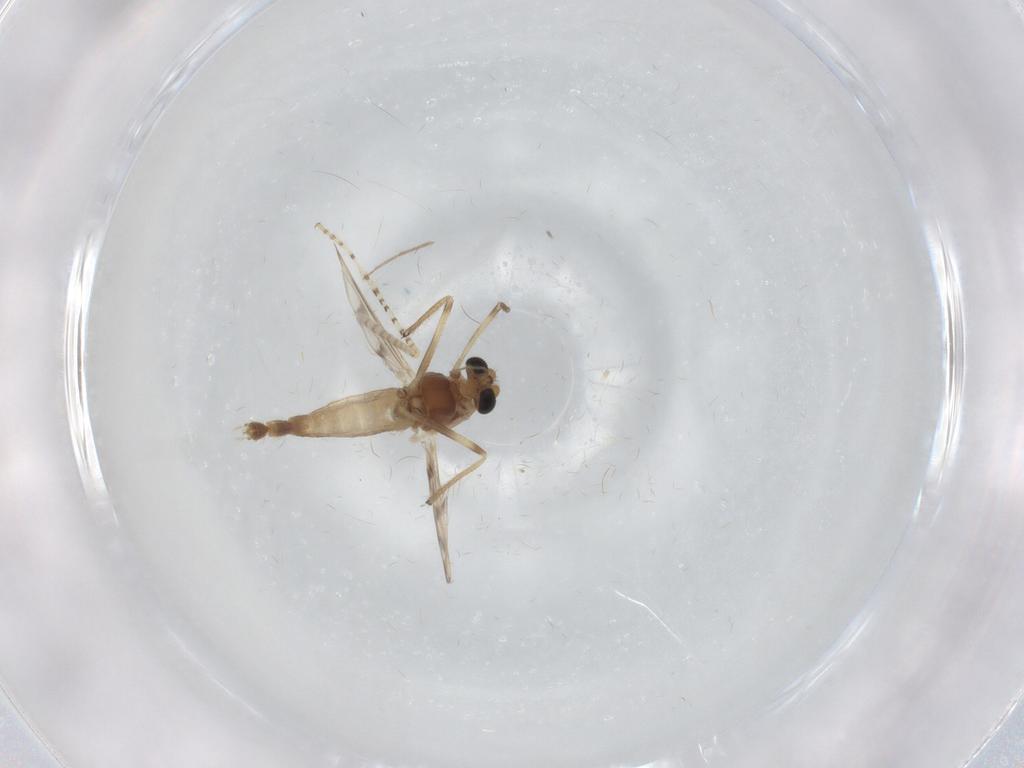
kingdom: Animalia
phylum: Arthropoda
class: Insecta
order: Diptera
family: Chironomidae
